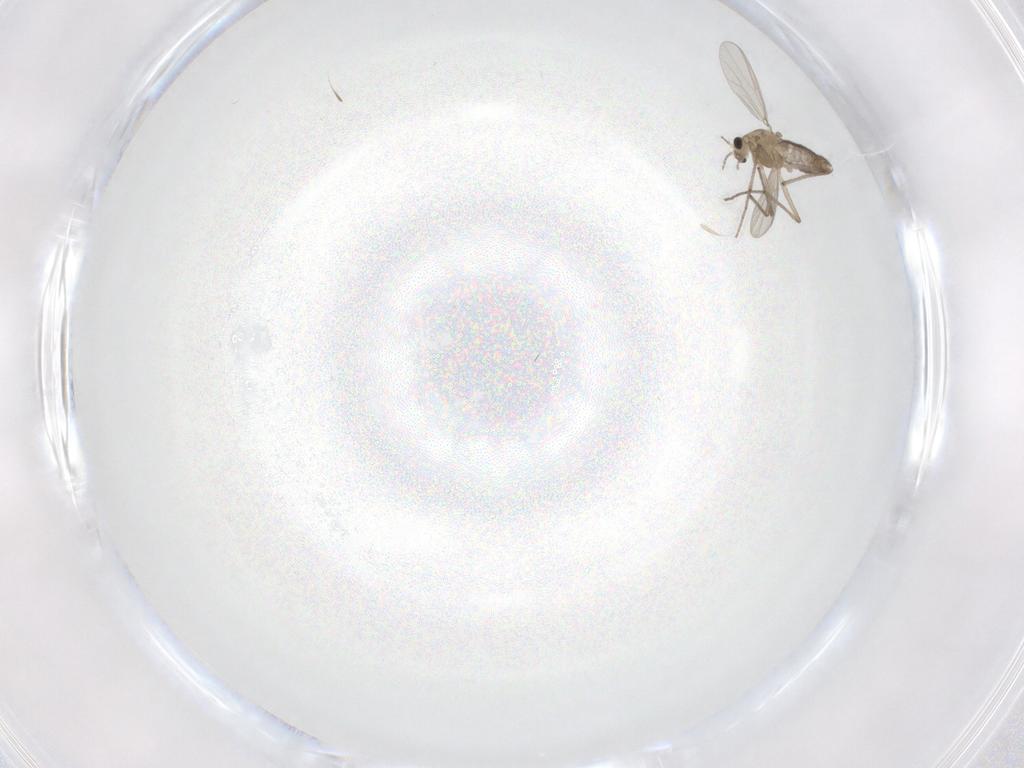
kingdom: Animalia
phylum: Arthropoda
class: Insecta
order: Diptera
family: Chironomidae
